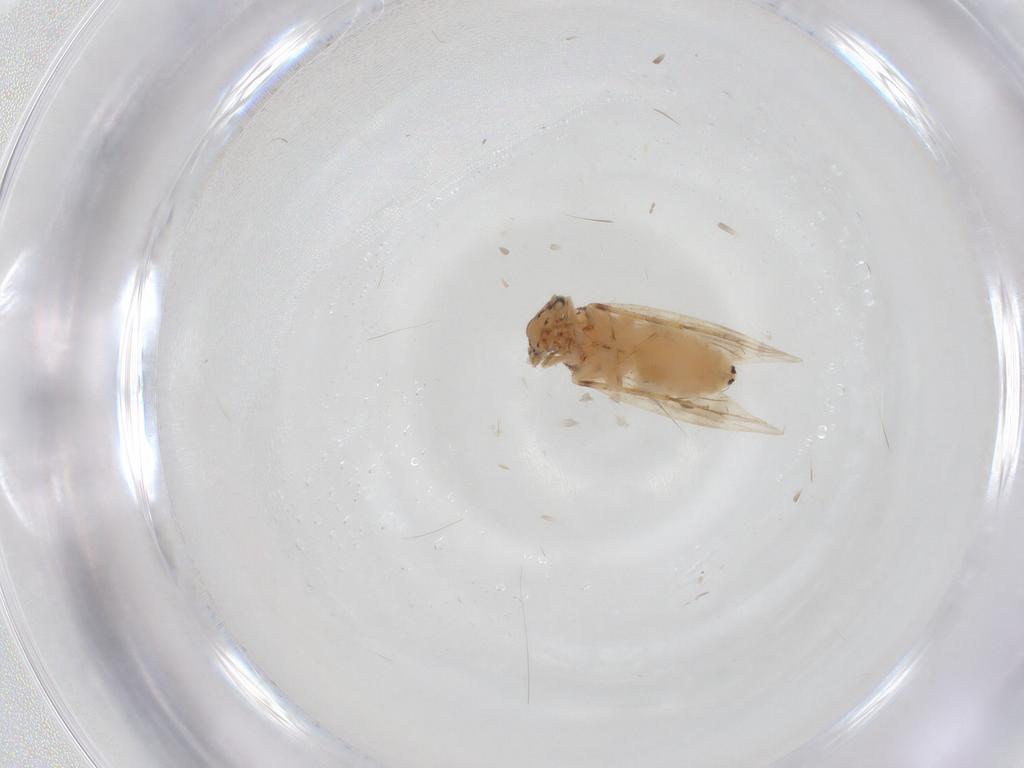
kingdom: Animalia
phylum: Arthropoda
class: Insecta
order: Psocodea
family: Lepidopsocidae
